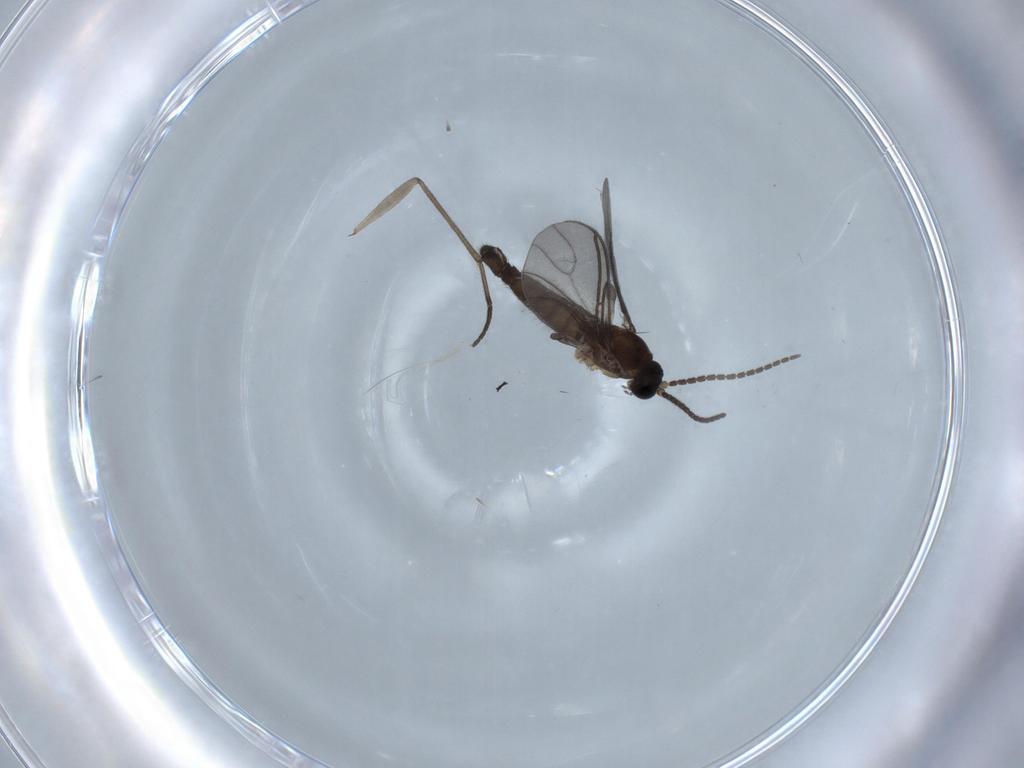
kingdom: Animalia
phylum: Arthropoda
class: Insecta
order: Diptera
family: Sciaridae
